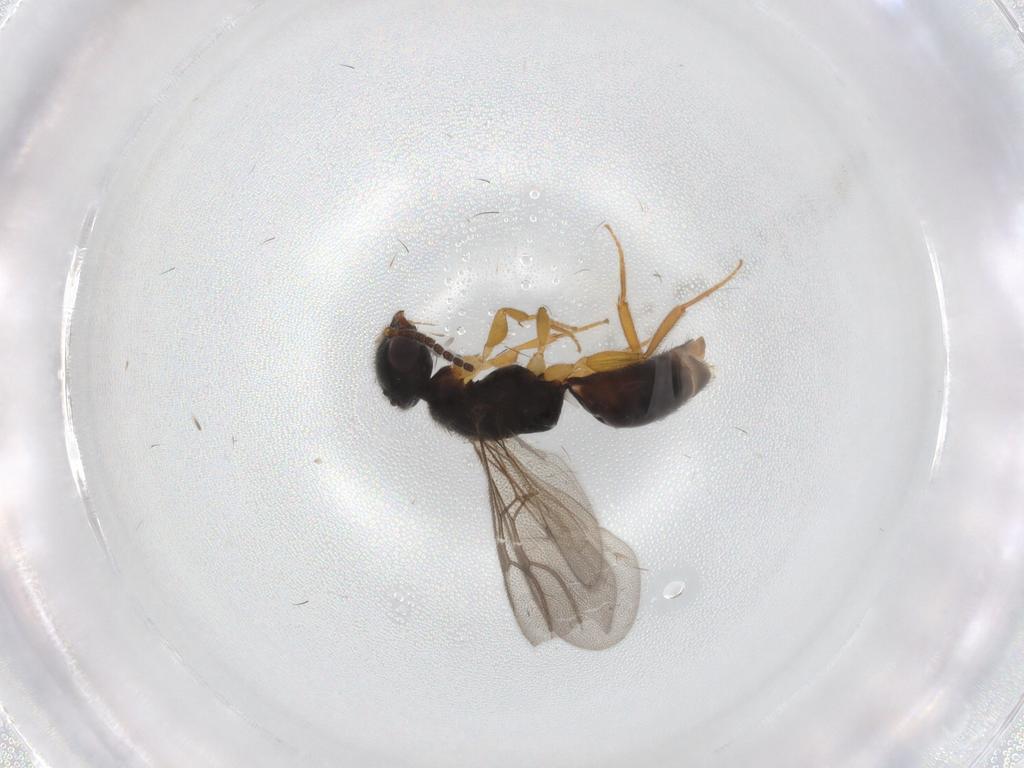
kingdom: Animalia
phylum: Arthropoda
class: Insecta
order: Hymenoptera
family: Bethylidae
